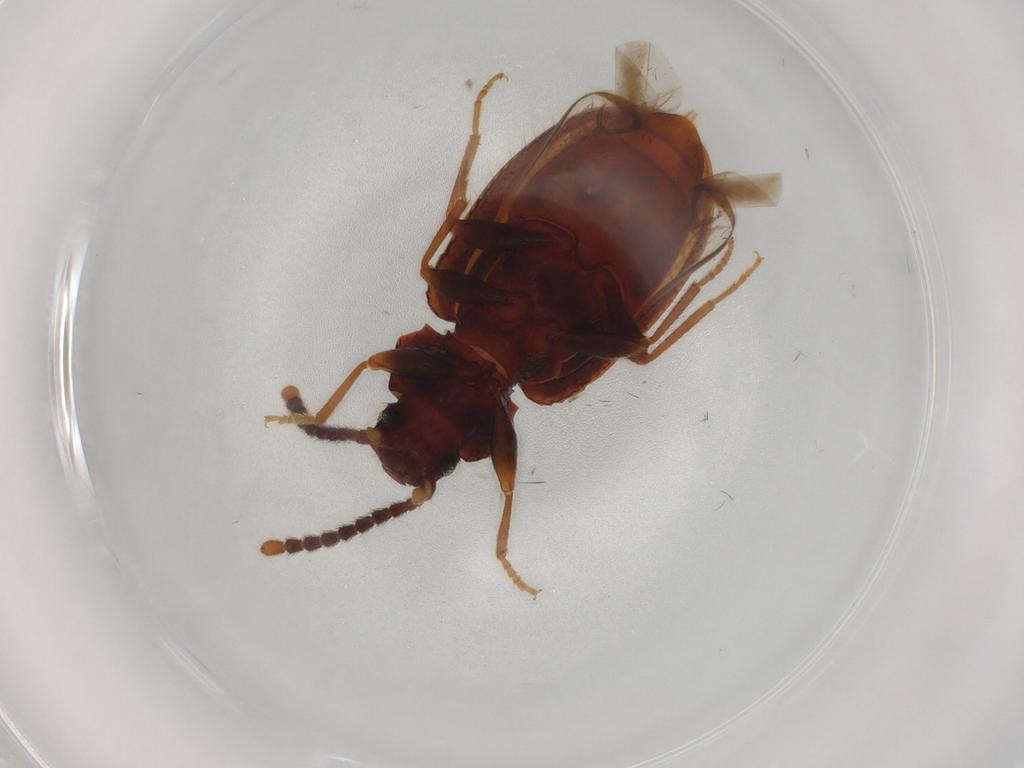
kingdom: Animalia
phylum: Arthropoda
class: Insecta
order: Coleoptera
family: Tenebrionidae
